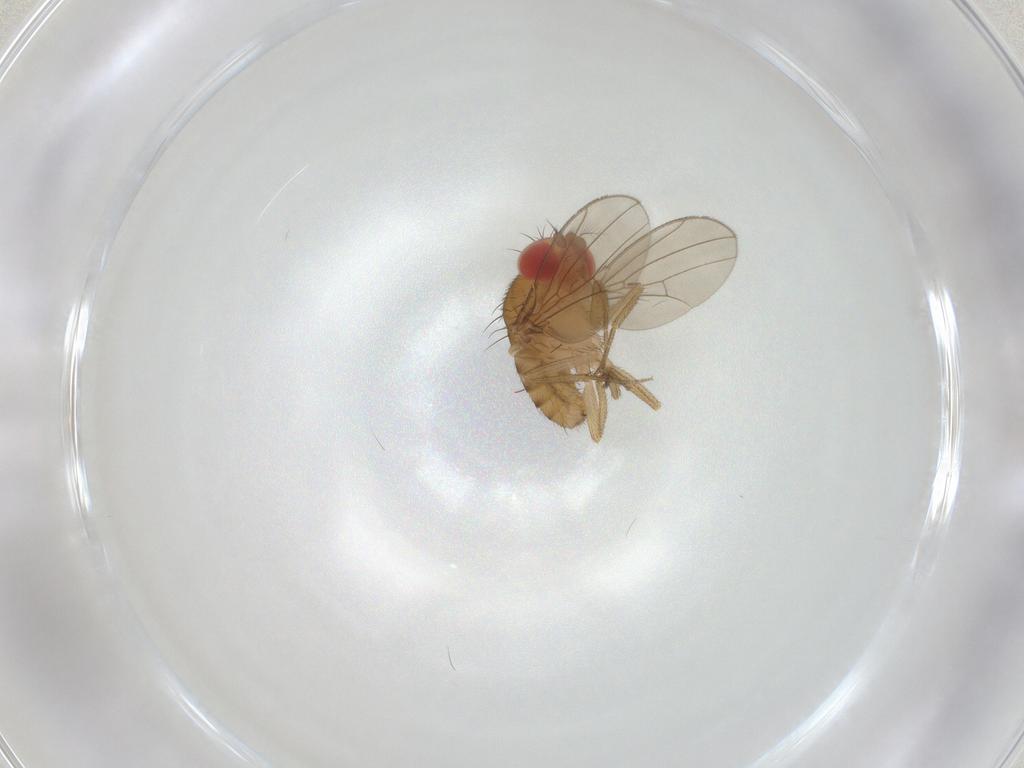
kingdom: Animalia
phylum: Arthropoda
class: Insecta
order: Diptera
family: Drosophilidae
